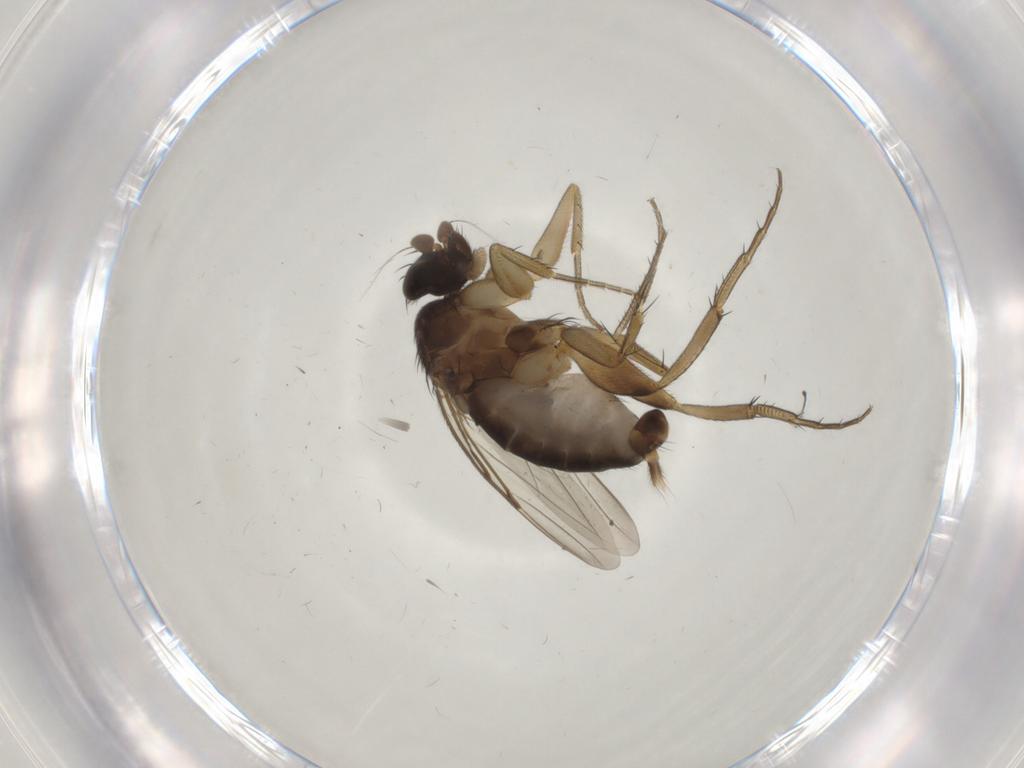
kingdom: Animalia
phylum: Arthropoda
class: Insecta
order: Diptera
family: Phoridae
